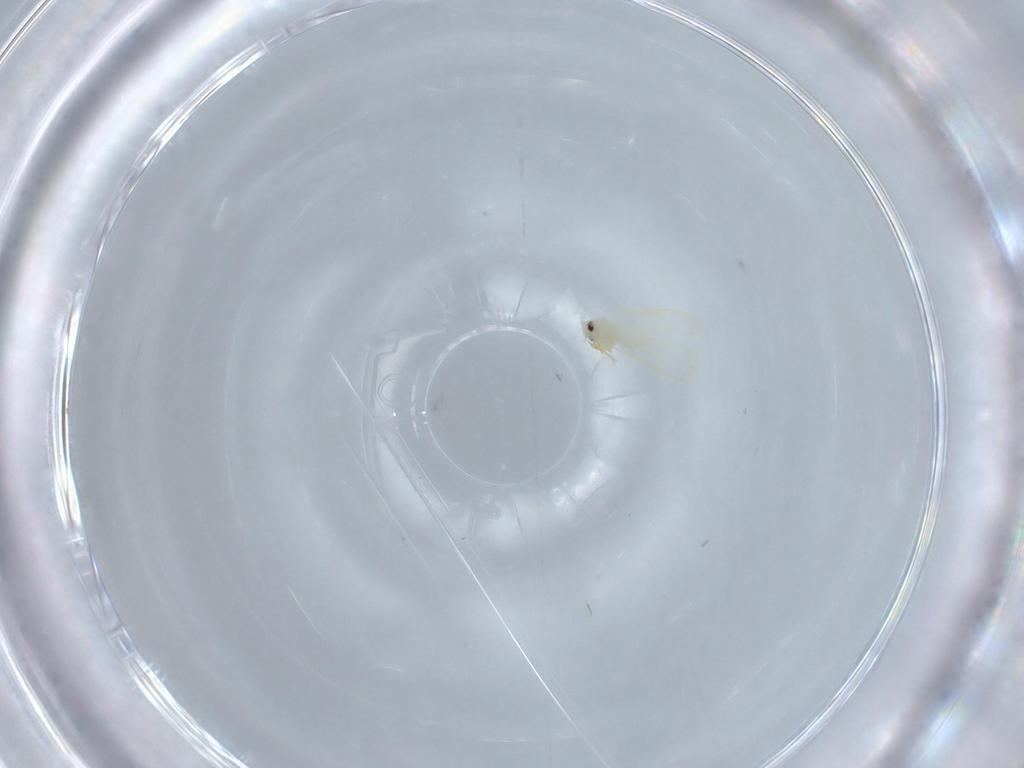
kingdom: Animalia
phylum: Arthropoda
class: Insecta
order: Hemiptera
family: Aleyrodidae
